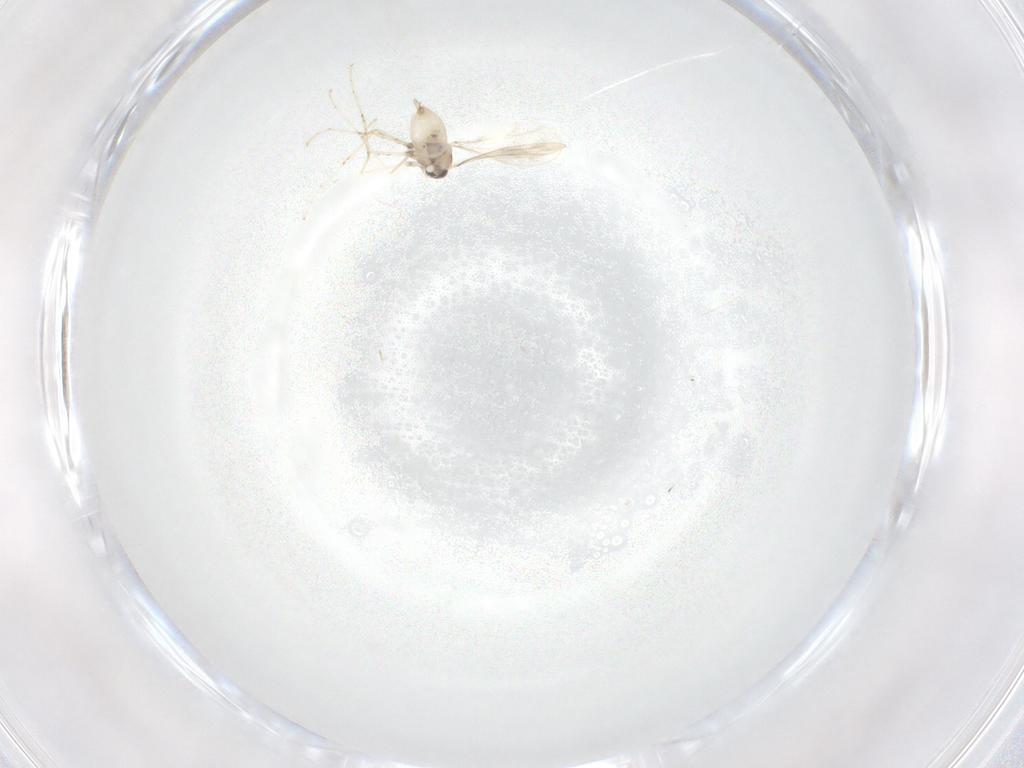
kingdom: Animalia
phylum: Arthropoda
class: Insecta
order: Diptera
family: Cecidomyiidae
